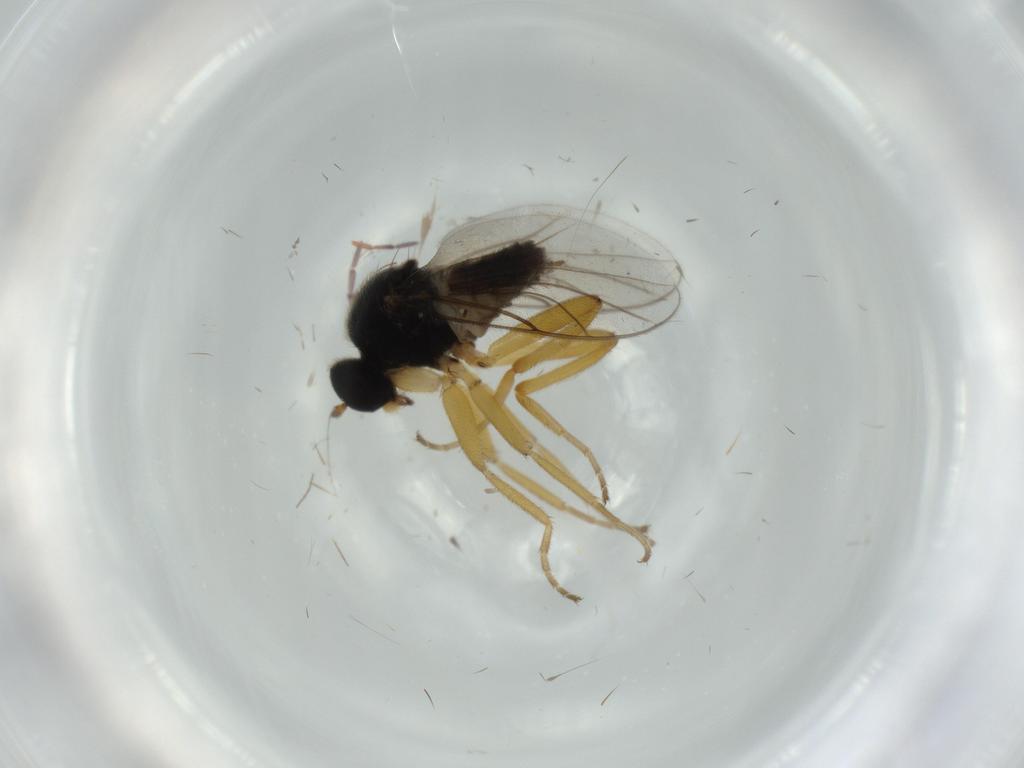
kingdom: Animalia
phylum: Arthropoda
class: Insecta
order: Diptera
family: Hybotidae
